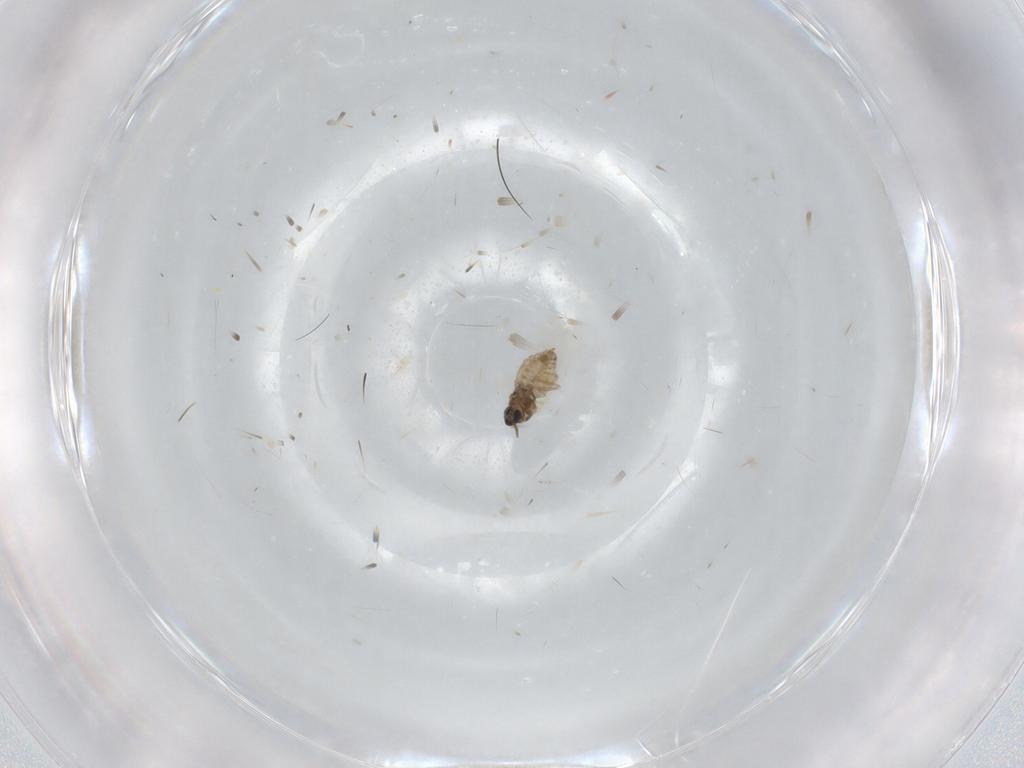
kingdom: Animalia
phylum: Arthropoda
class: Insecta
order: Diptera
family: Cecidomyiidae
